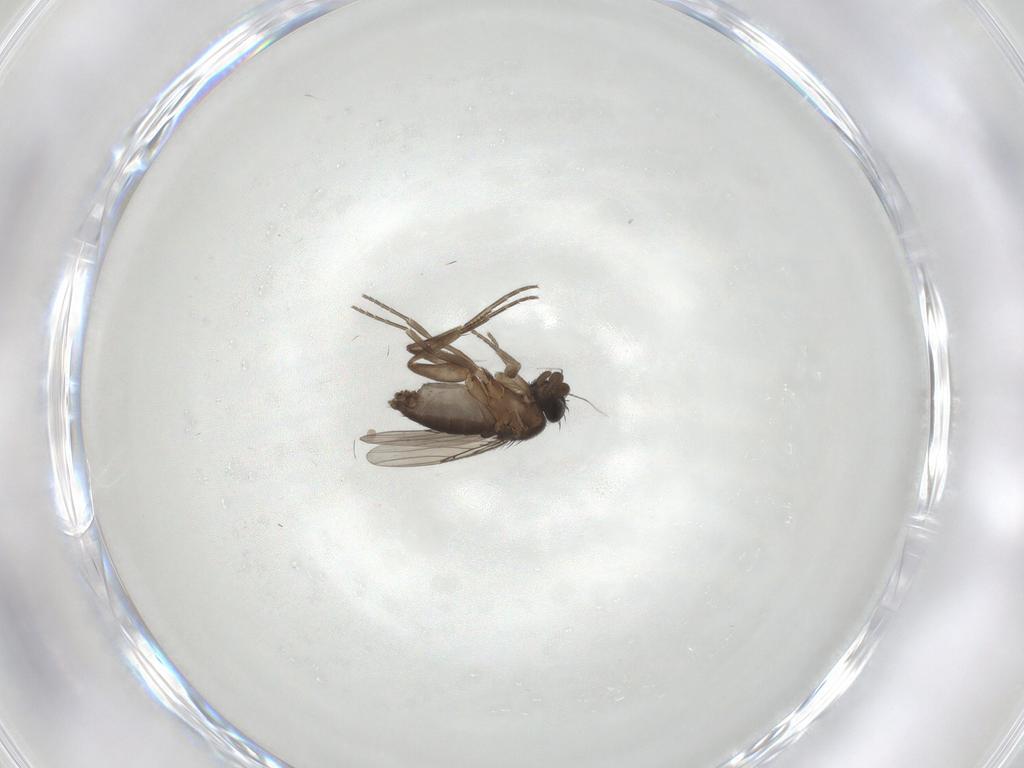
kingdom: Animalia
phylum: Arthropoda
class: Insecta
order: Diptera
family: Phoridae
